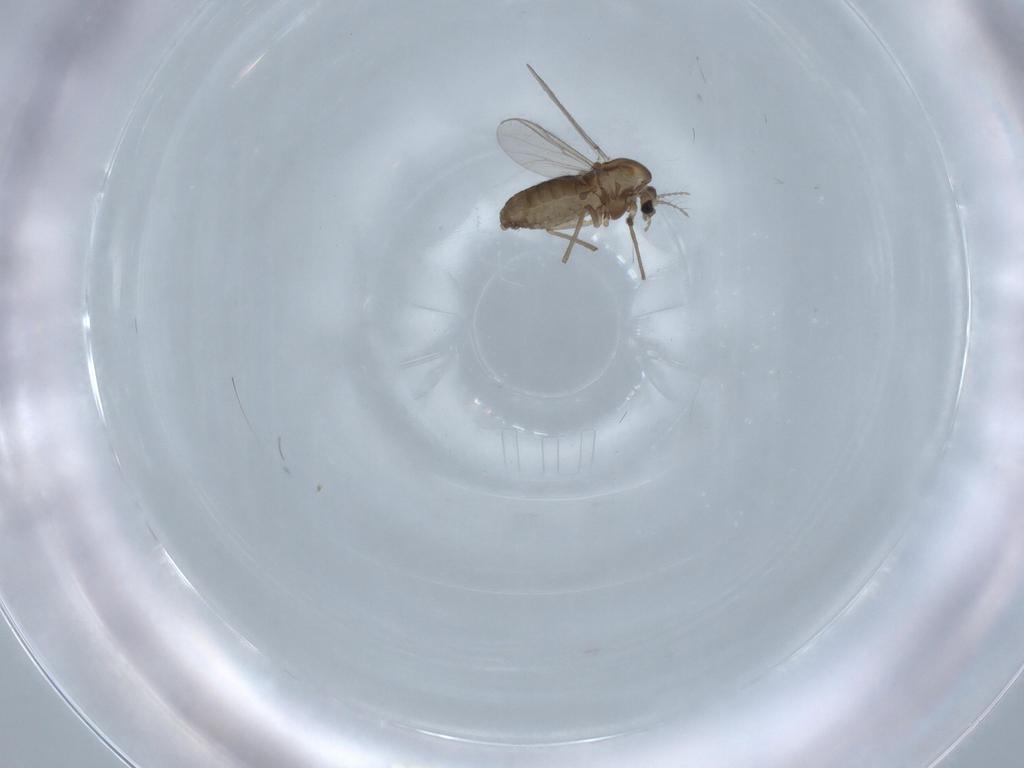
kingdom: Animalia
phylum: Arthropoda
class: Insecta
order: Diptera
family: Chironomidae
